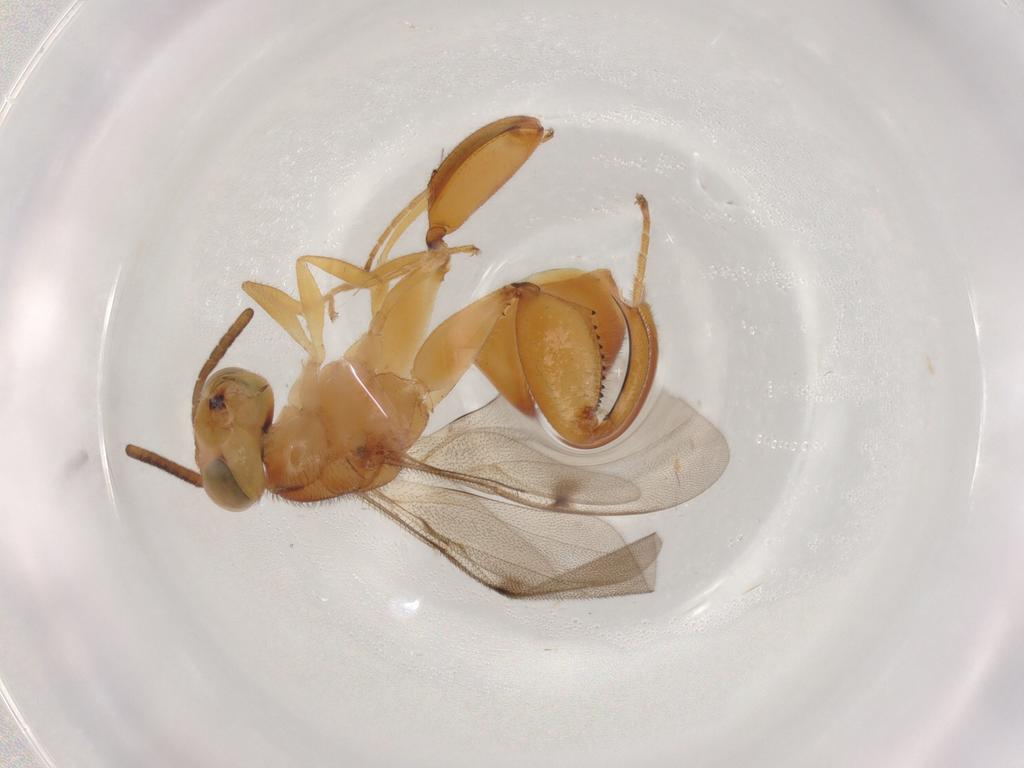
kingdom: Animalia
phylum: Arthropoda
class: Insecta
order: Hymenoptera
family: Chalcididae
